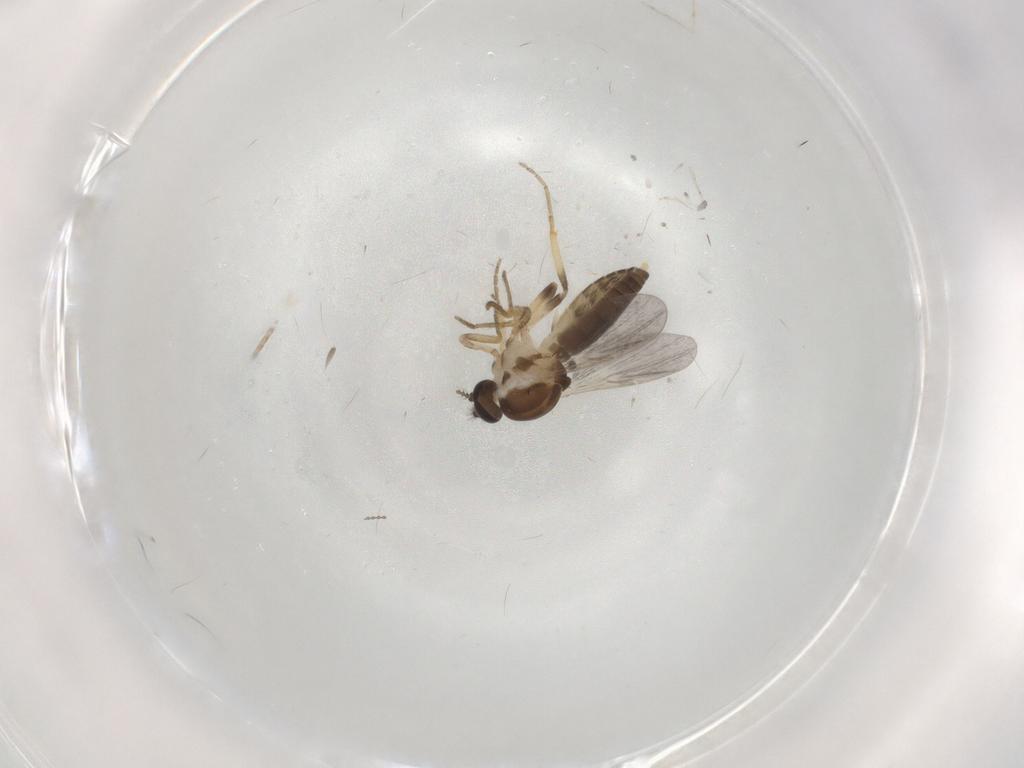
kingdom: Animalia
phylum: Arthropoda
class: Insecta
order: Diptera
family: Ceratopogonidae
